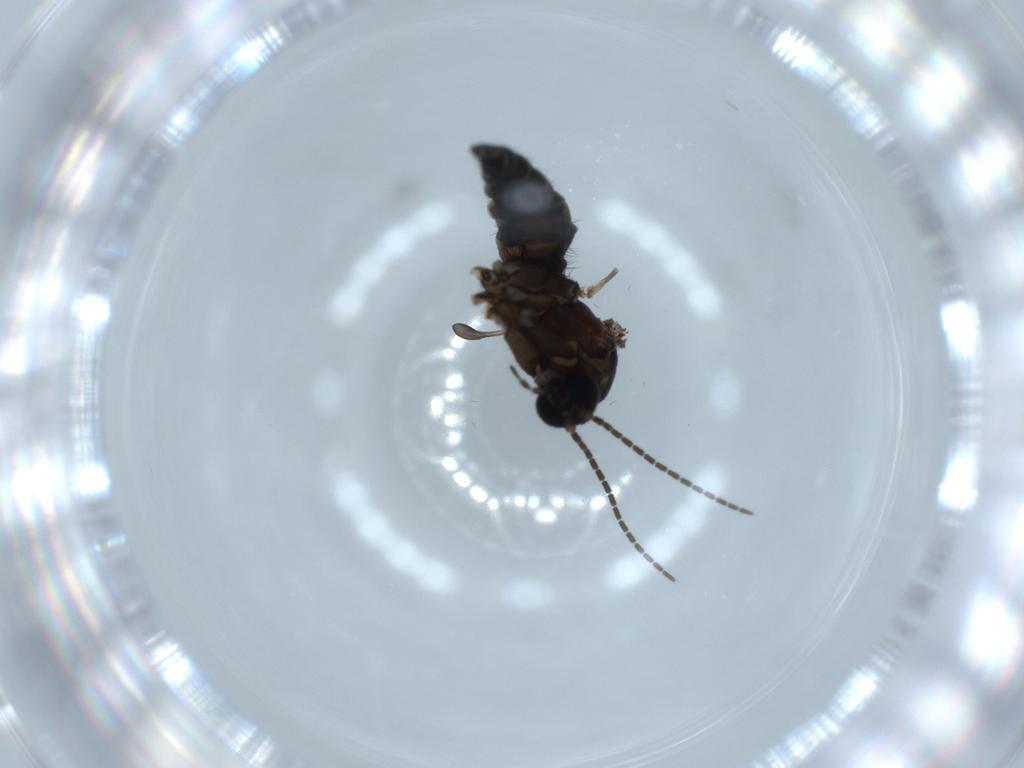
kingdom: Animalia
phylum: Arthropoda
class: Insecta
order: Diptera
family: Sciaridae
